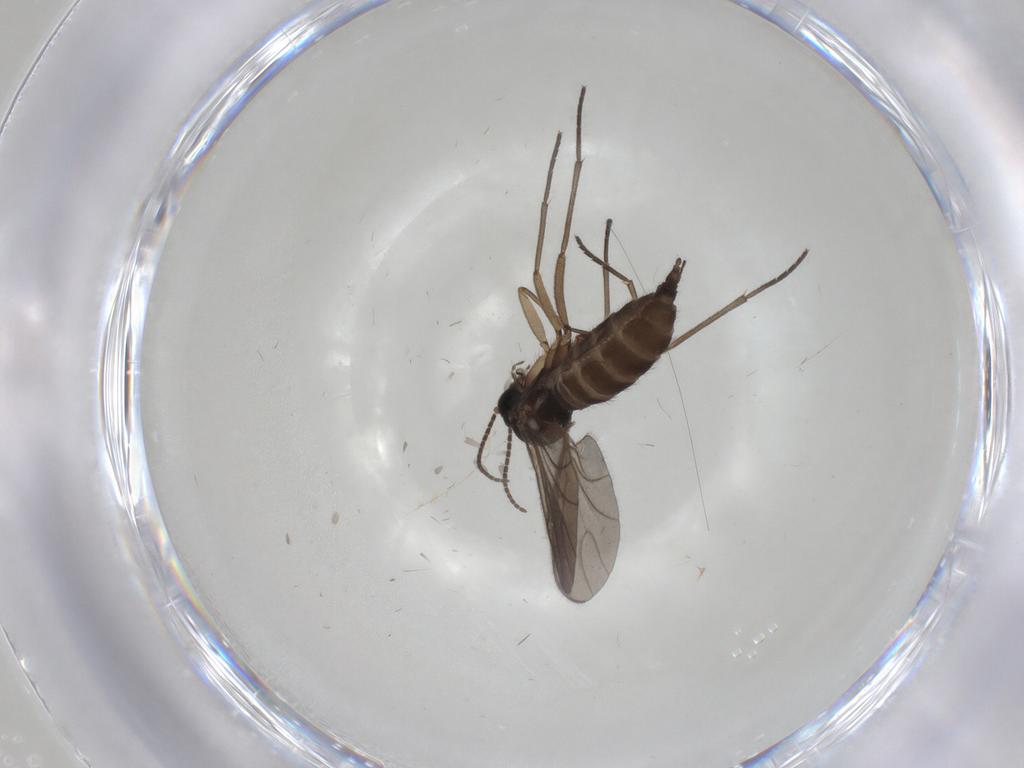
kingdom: Animalia
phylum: Arthropoda
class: Insecta
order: Diptera
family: Sciaridae
